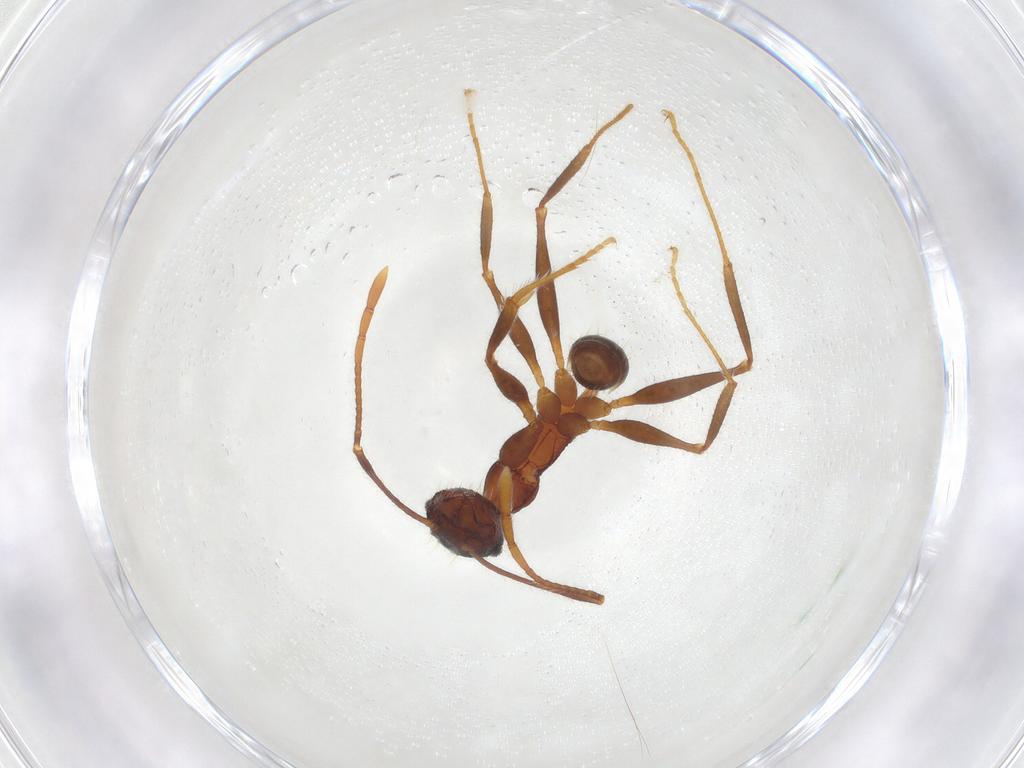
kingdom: Animalia
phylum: Arthropoda
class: Insecta
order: Hymenoptera
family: Formicidae
